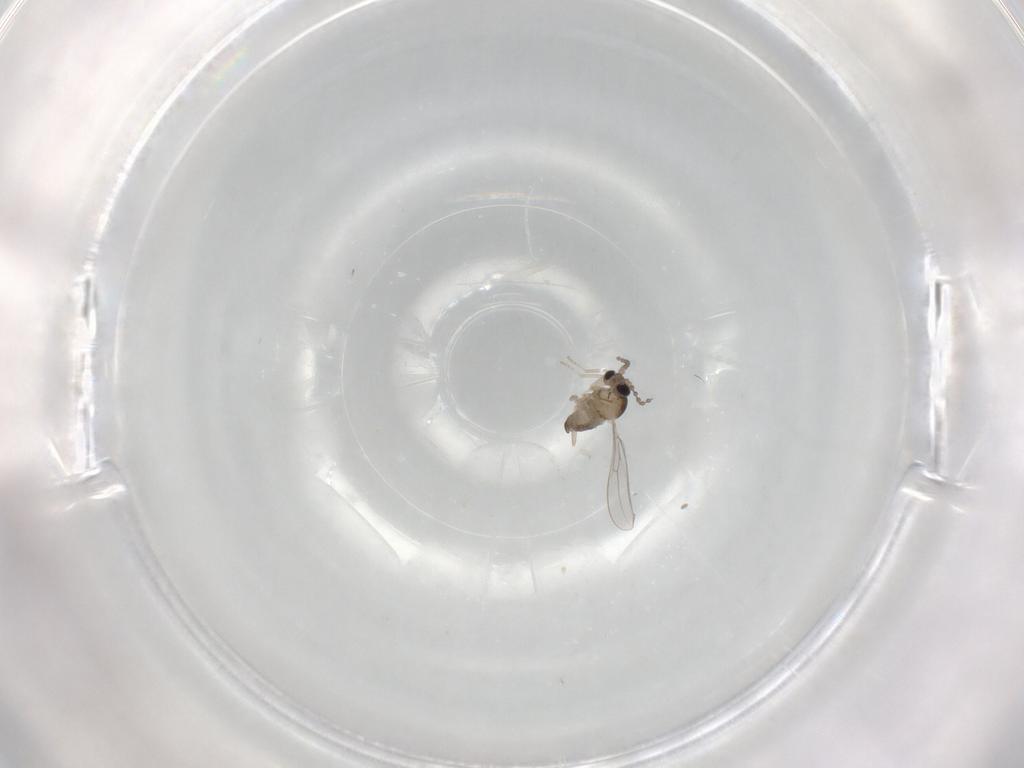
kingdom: Animalia
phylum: Arthropoda
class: Insecta
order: Diptera
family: Cecidomyiidae
